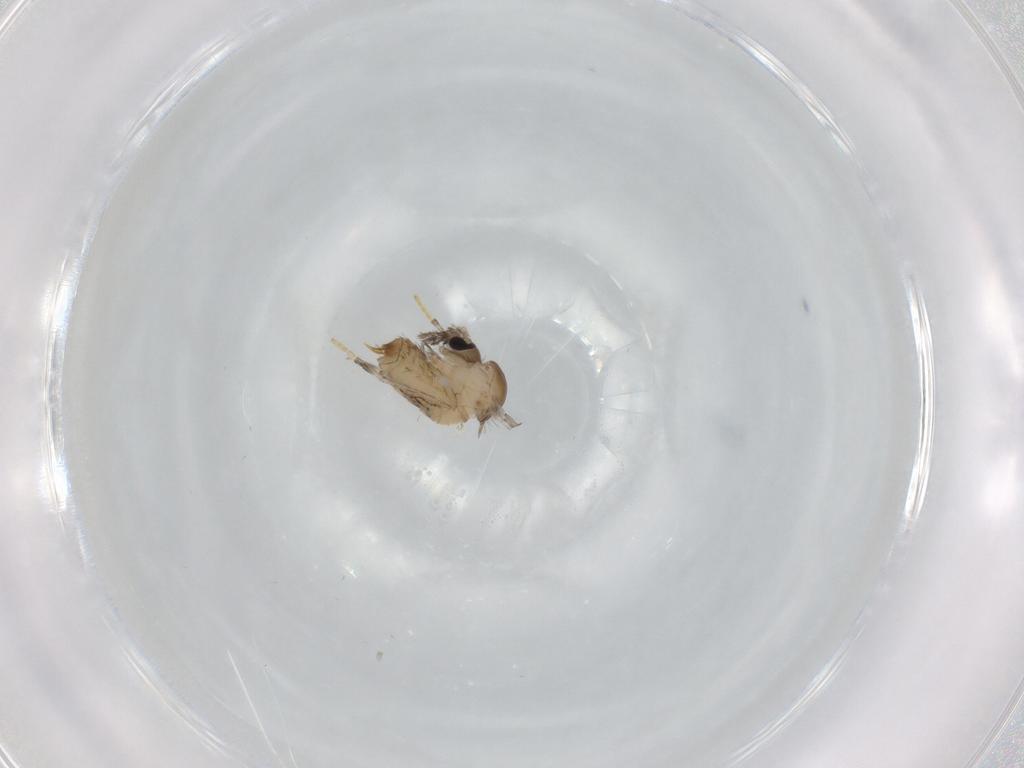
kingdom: Animalia
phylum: Arthropoda
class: Insecta
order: Diptera
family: Psychodidae
